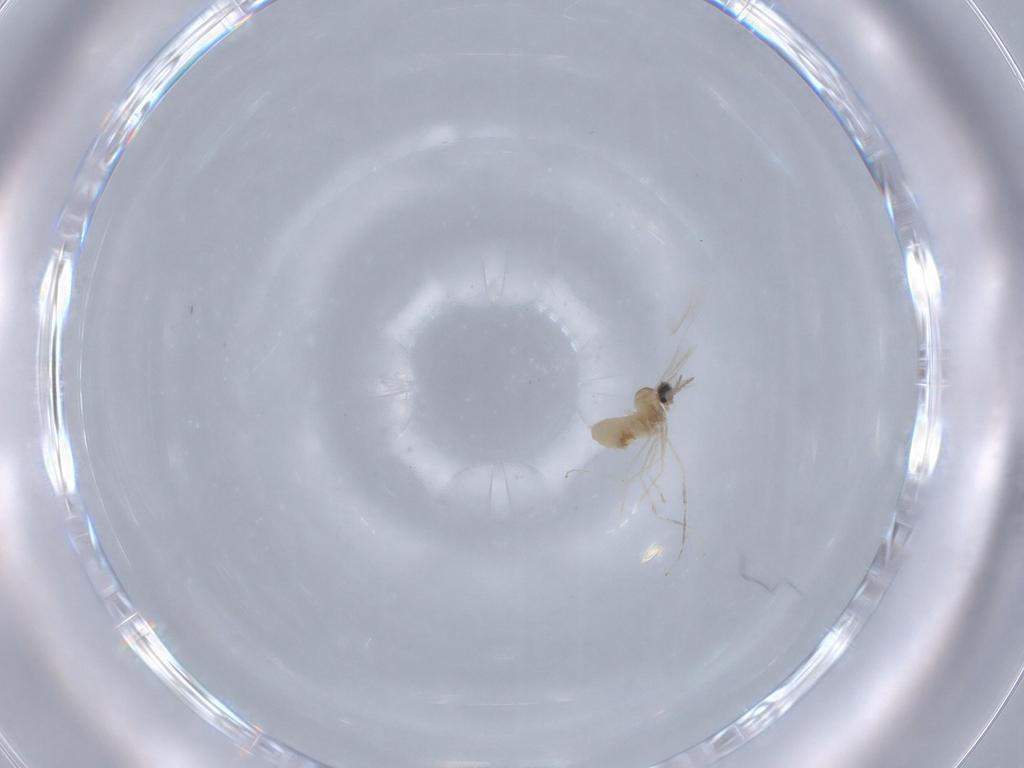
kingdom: Animalia
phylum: Arthropoda
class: Insecta
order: Diptera
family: Cecidomyiidae
